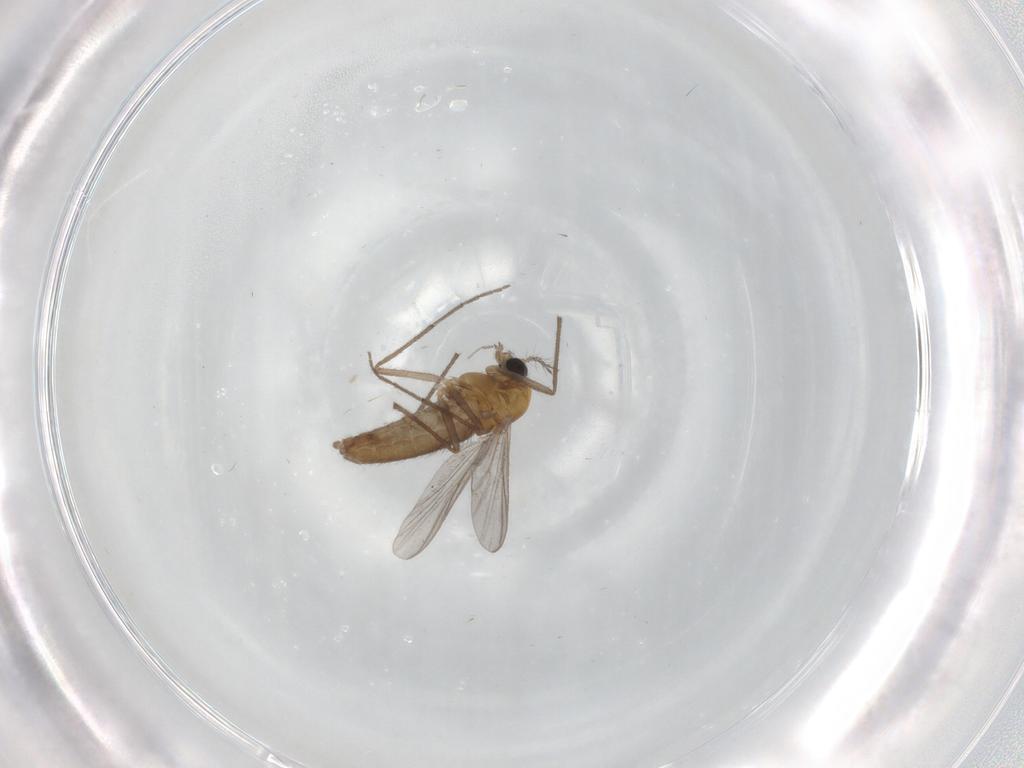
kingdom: Animalia
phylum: Arthropoda
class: Insecta
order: Diptera
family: Chironomidae
